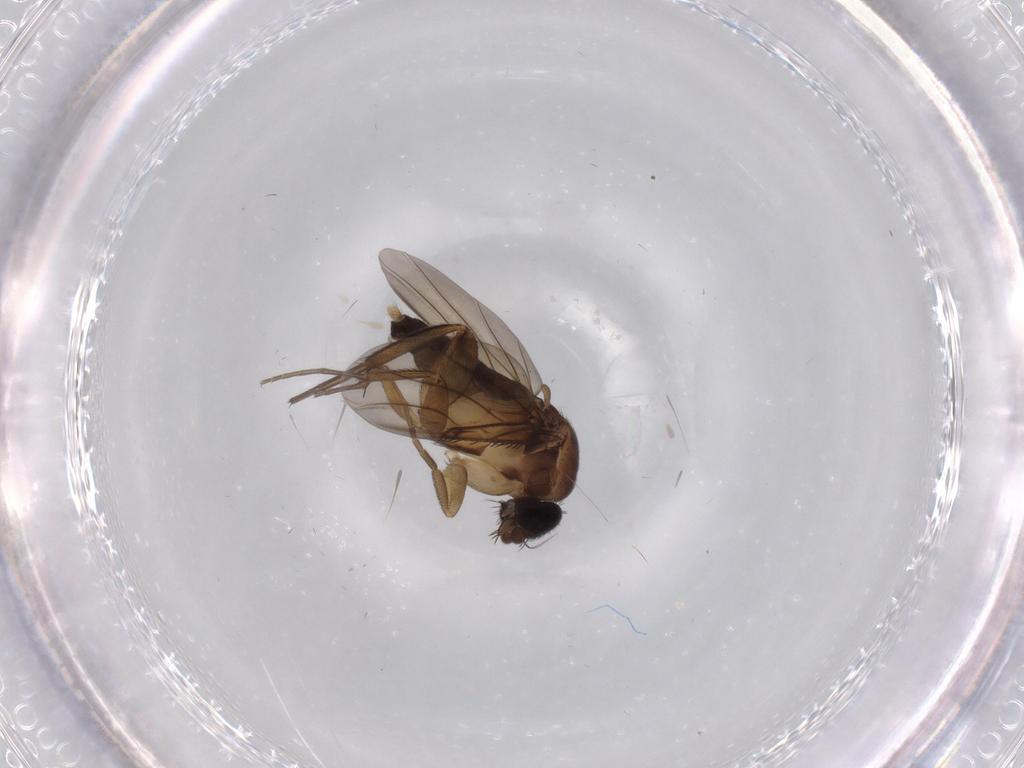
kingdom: Animalia
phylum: Arthropoda
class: Insecta
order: Diptera
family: Phoridae
